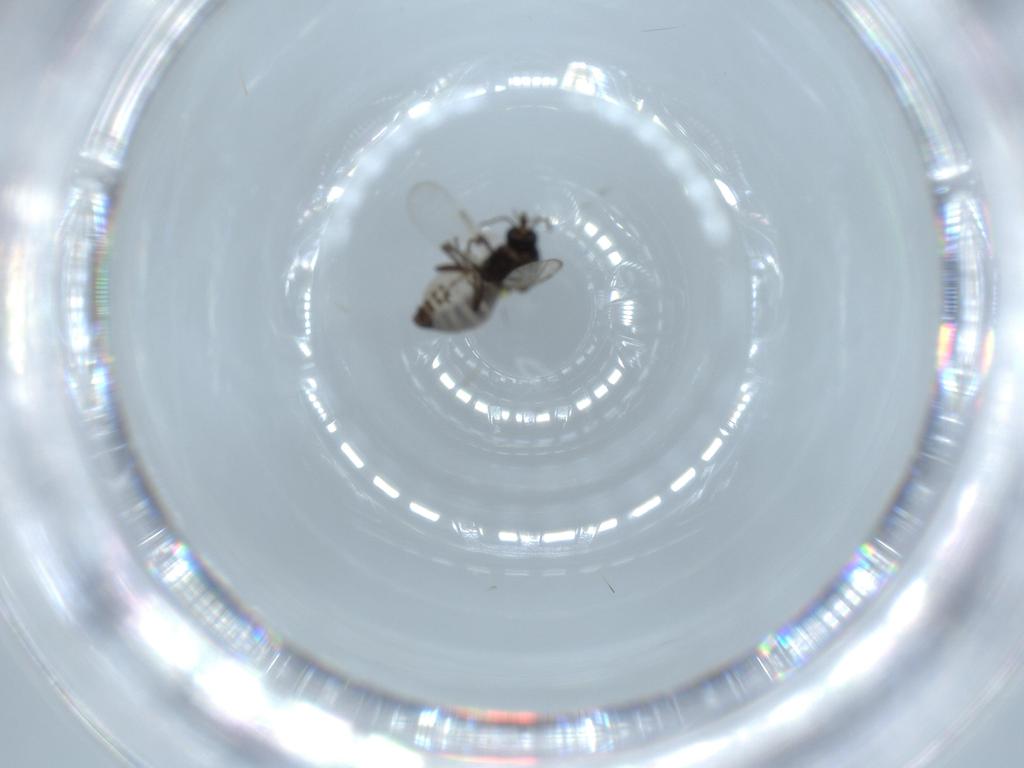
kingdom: Animalia
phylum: Arthropoda
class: Insecta
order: Diptera
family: Ceratopogonidae
